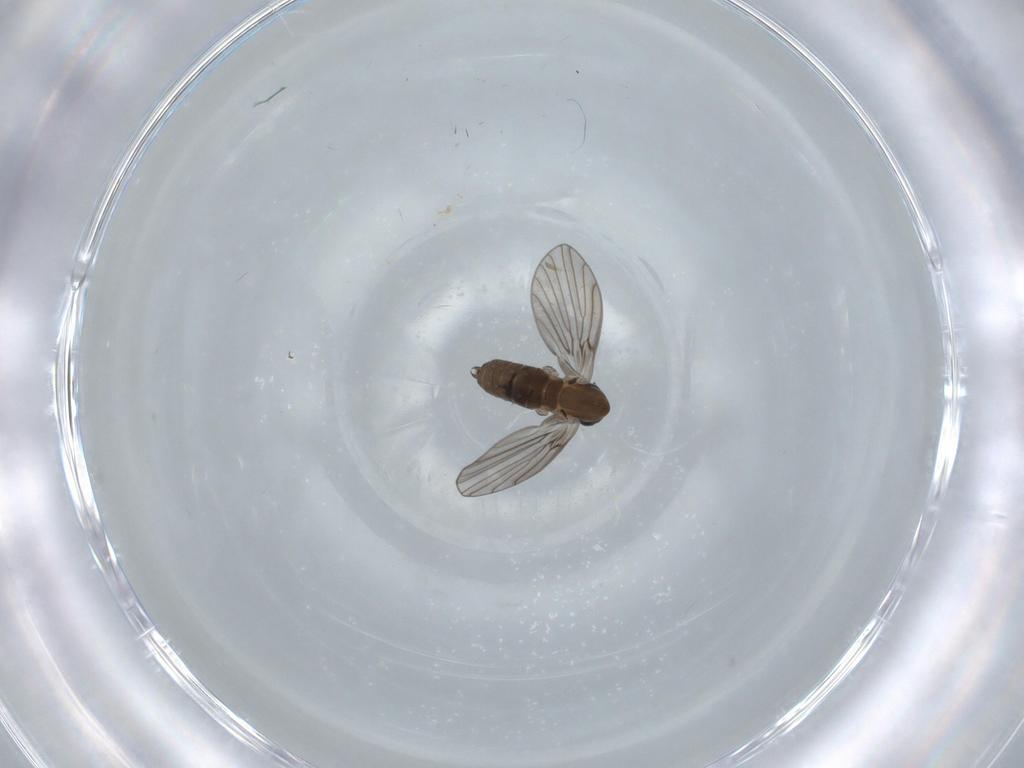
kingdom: Animalia
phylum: Arthropoda
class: Insecta
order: Diptera
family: Psychodidae
